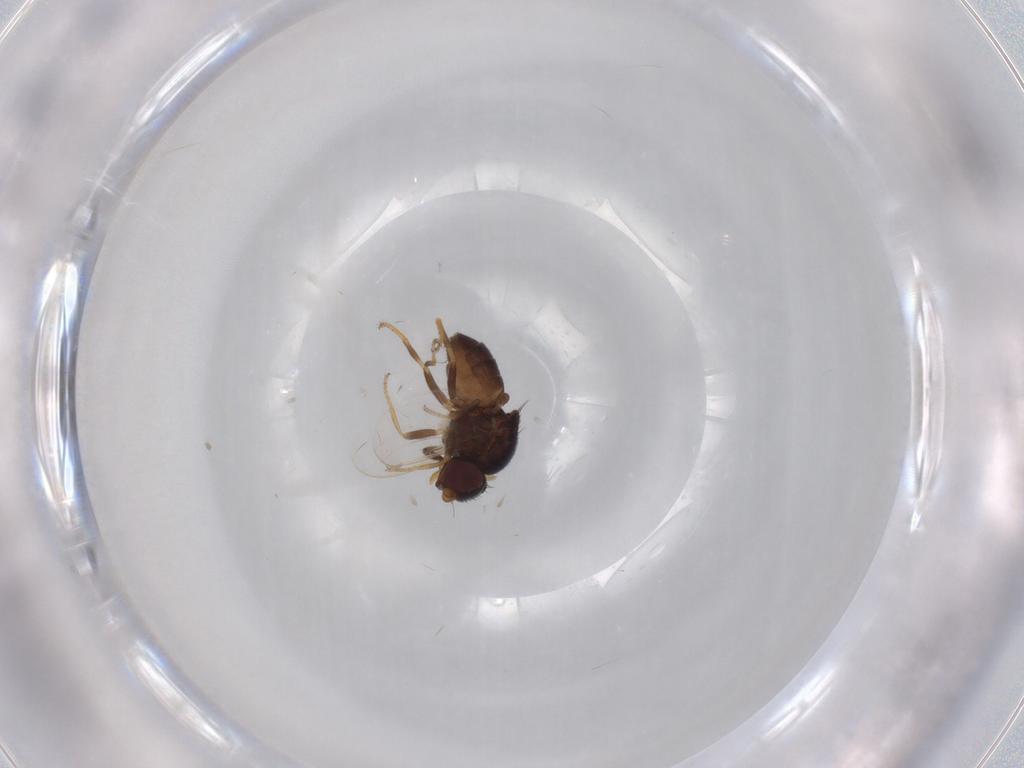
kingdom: Animalia
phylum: Arthropoda
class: Insecta
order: Diptera
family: Chloropidae
